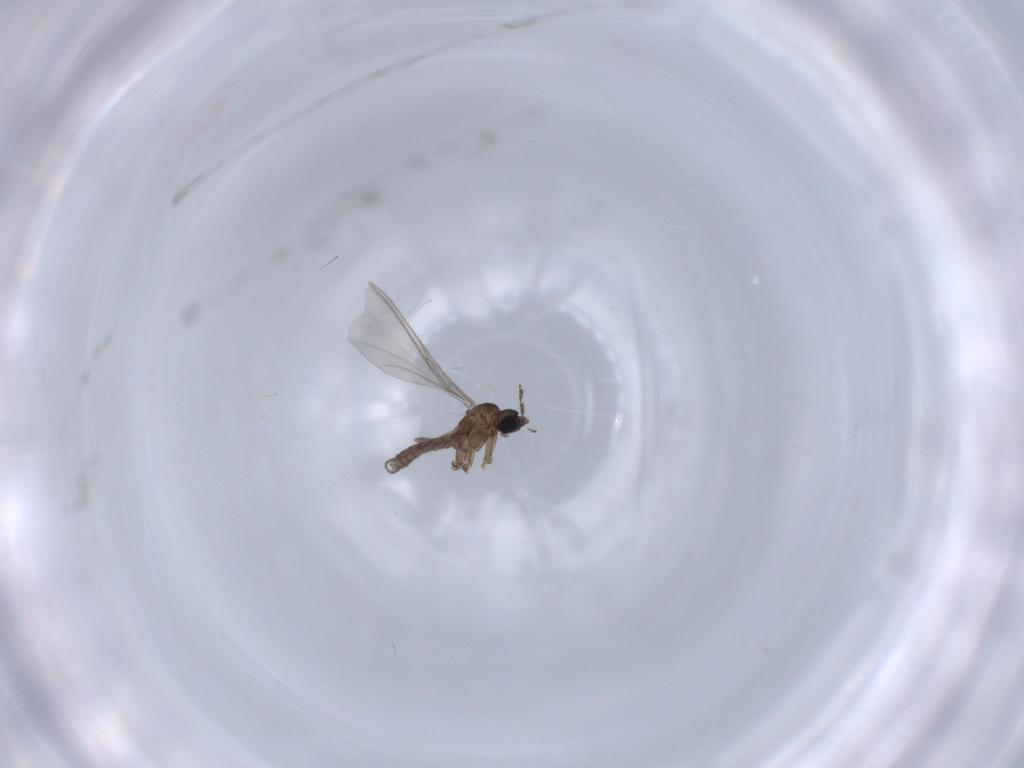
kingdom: Animalia
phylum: Arthropoda
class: Insecta
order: Diptera
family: Sciaridae
